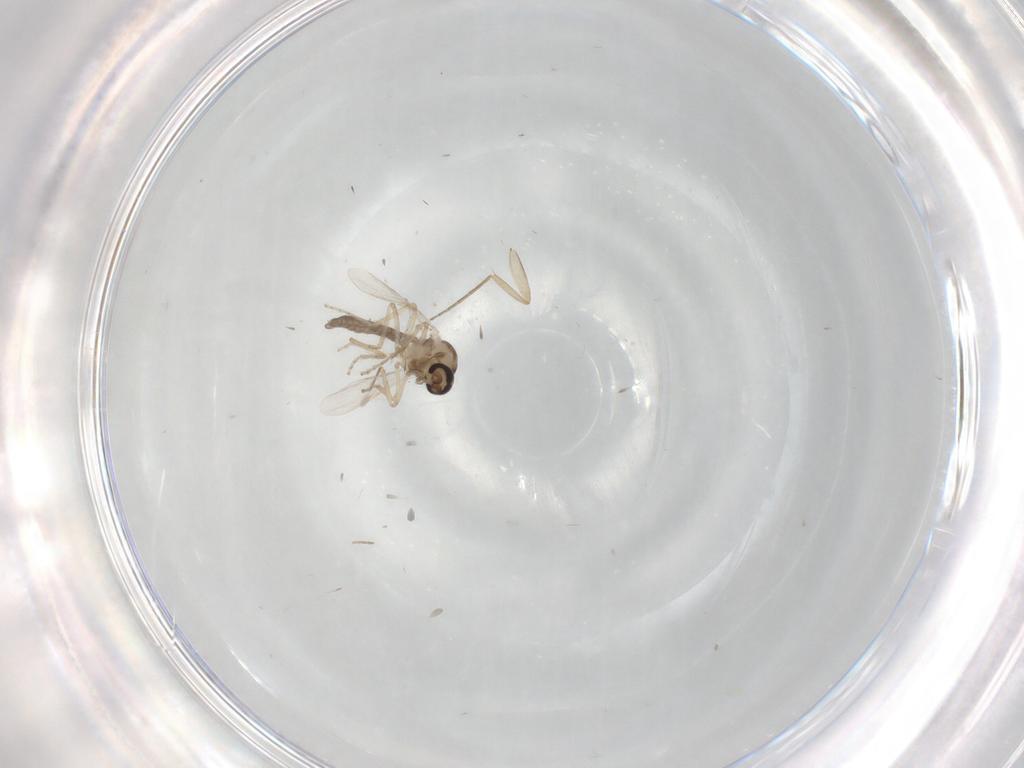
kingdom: Animalia
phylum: Arthropoda
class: Insecta
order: Diptera
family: Ceratopogonidae
